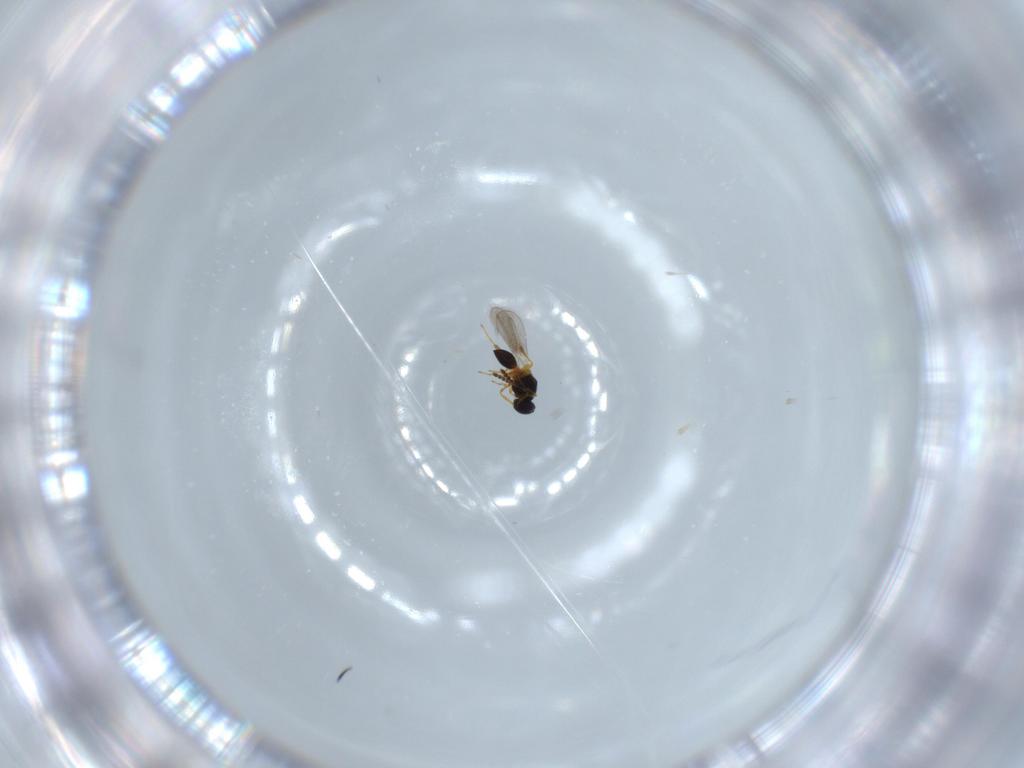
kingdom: Animalia
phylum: Arthropoda
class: Insecta
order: Hymenoptera
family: Platygastridae
